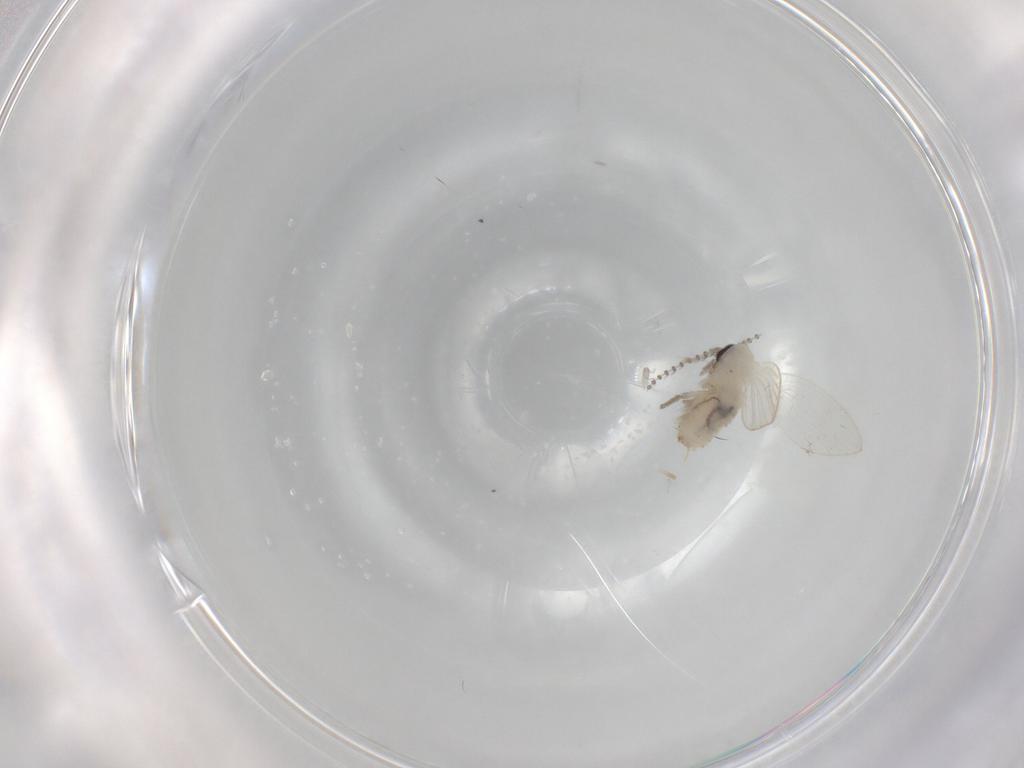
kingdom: Animalia
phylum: Arthropoda
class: Insecta
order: Diptera
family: Psychodidae
